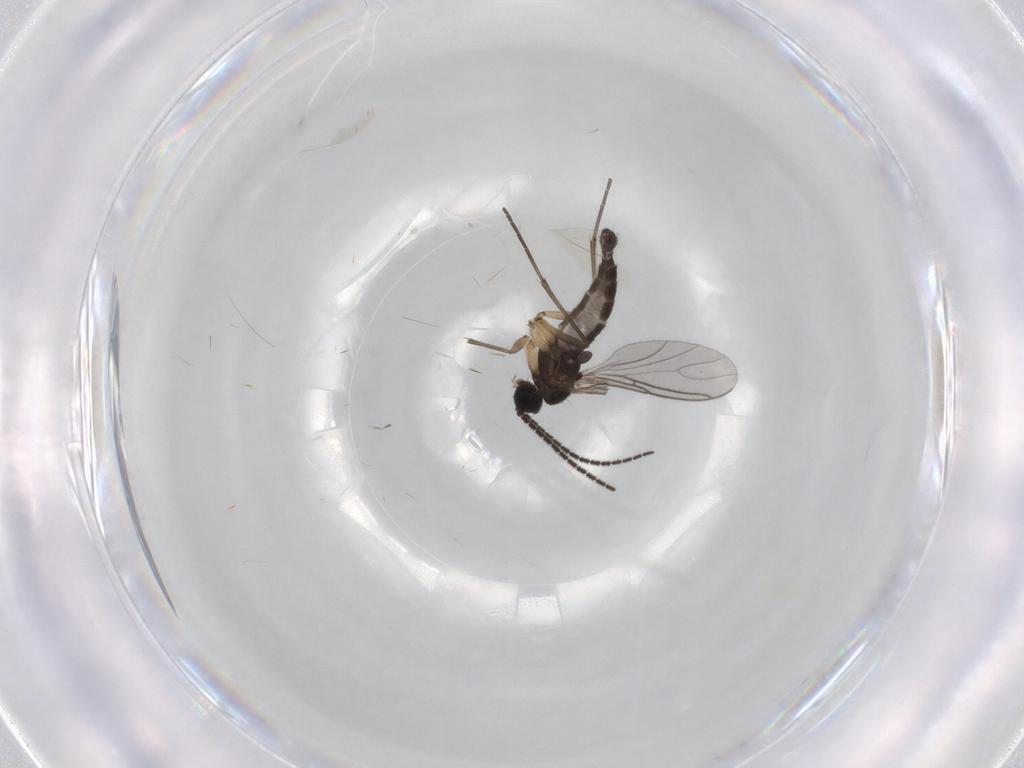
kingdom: Animalia
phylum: Arthropoda
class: Insecta
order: Diptera
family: Sciaridae
